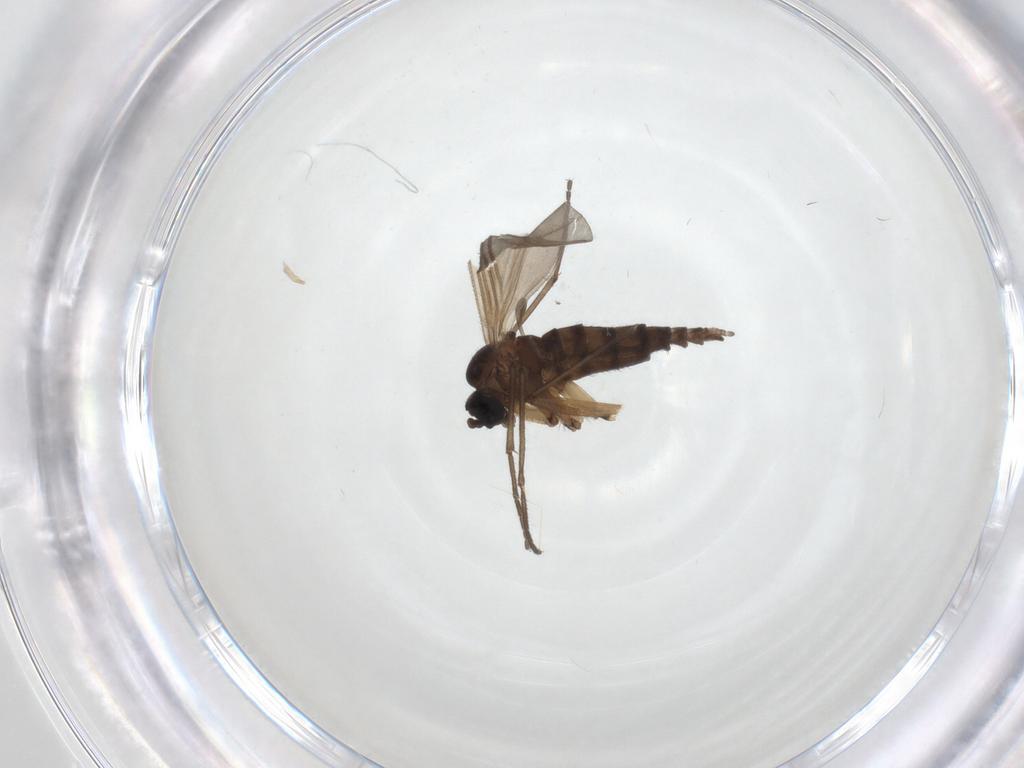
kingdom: Animalia
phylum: Arthropoda
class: Insecta
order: Diptera
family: Sciaridae
